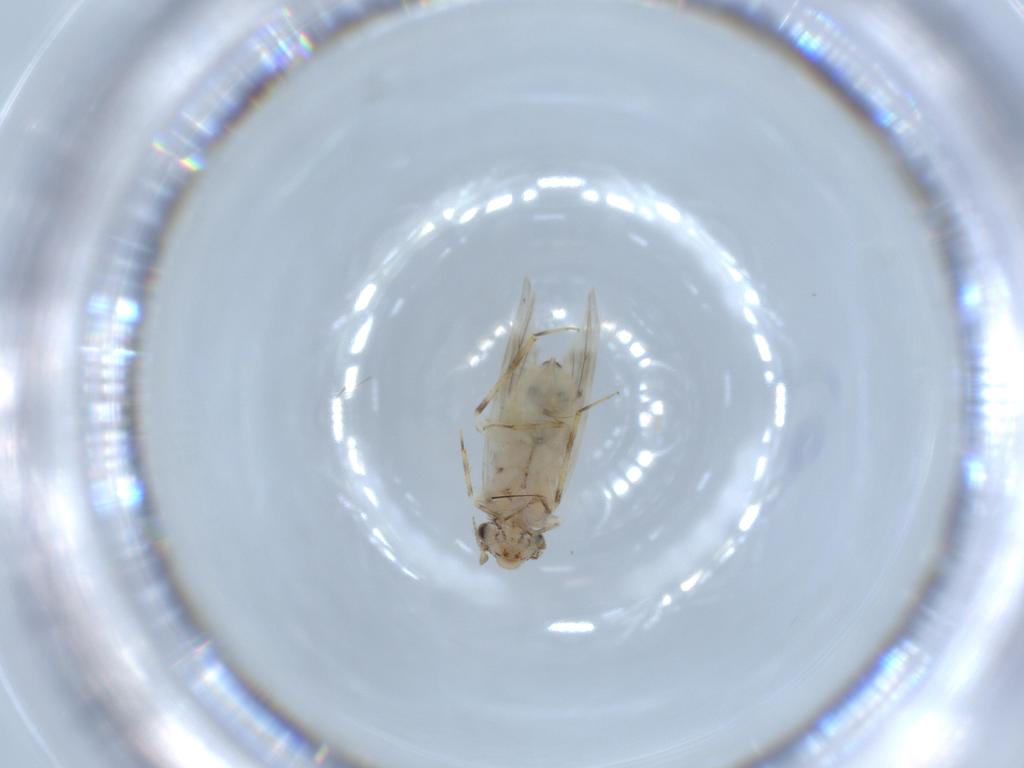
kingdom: Animalia
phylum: Arthropoda
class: Insecta
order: Psocodea
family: Lepidopsocidae
